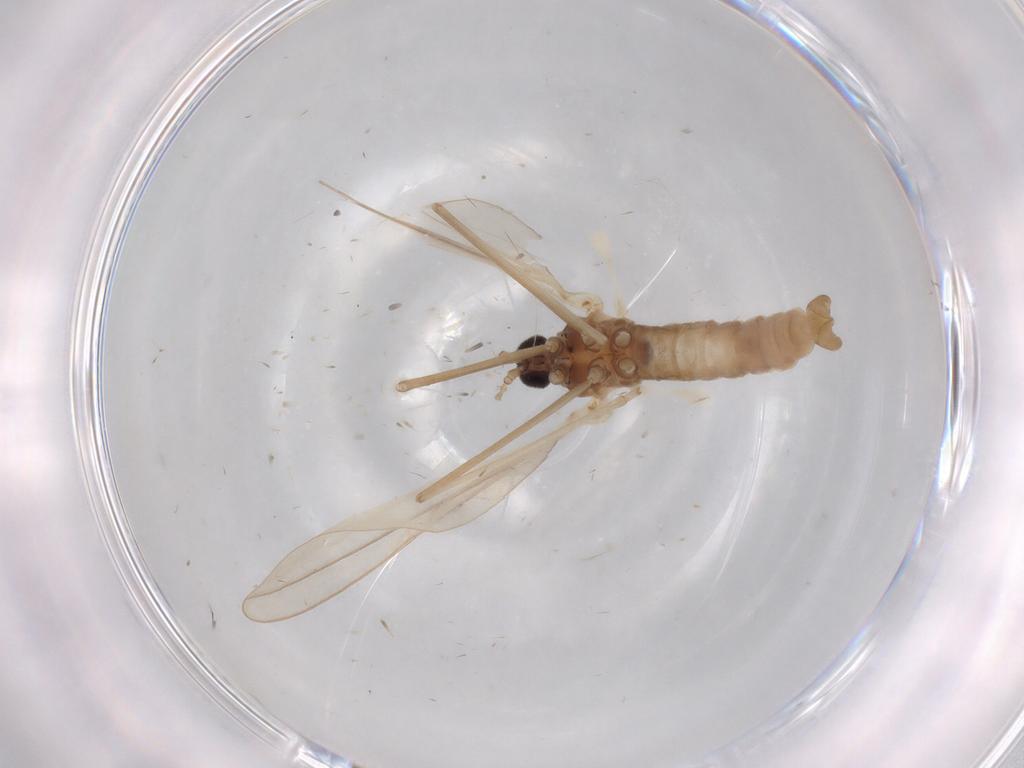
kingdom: Animalia
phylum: Arthropoda
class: Insecta
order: Diptera
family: Cecidomyiidae
